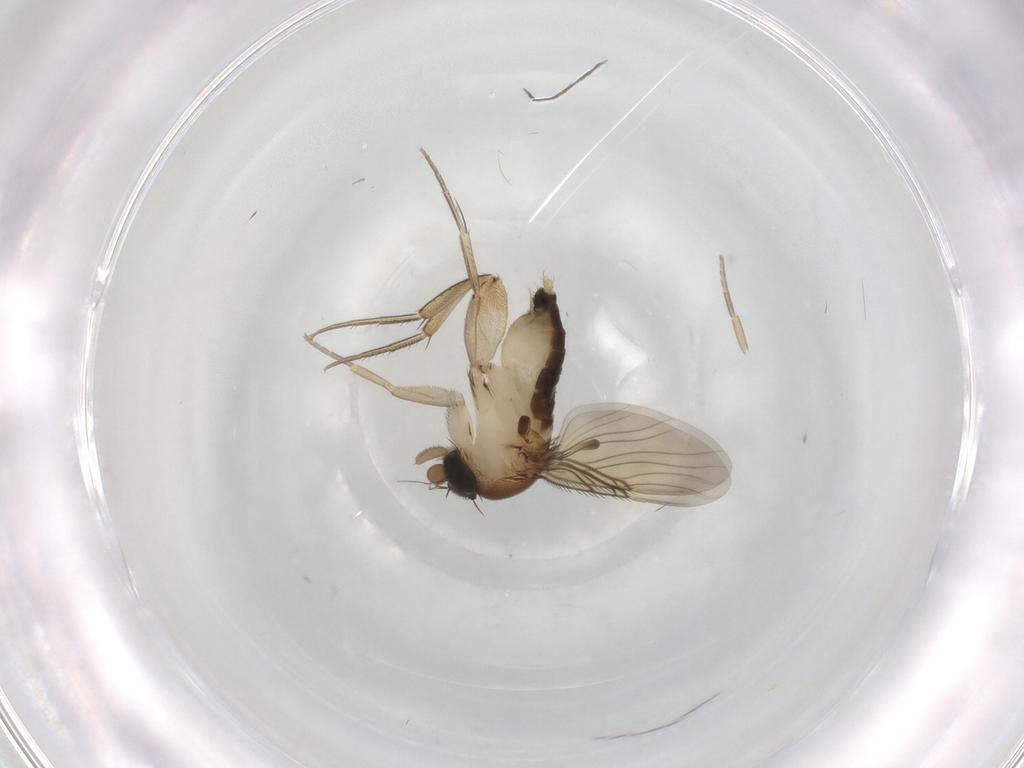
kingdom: Animalia
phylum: Arthropoda
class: Insecta
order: Diptera
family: Phoridae
